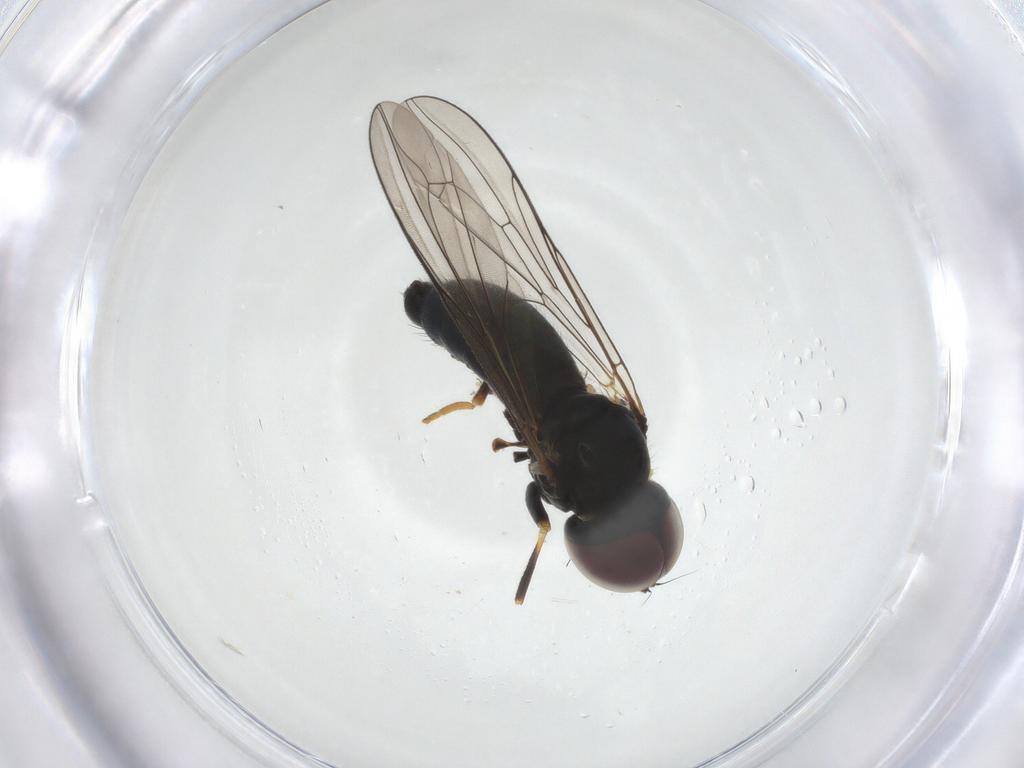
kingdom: Animalia
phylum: Arthropoda
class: Insecta
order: Diptera
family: Pipunculidae
